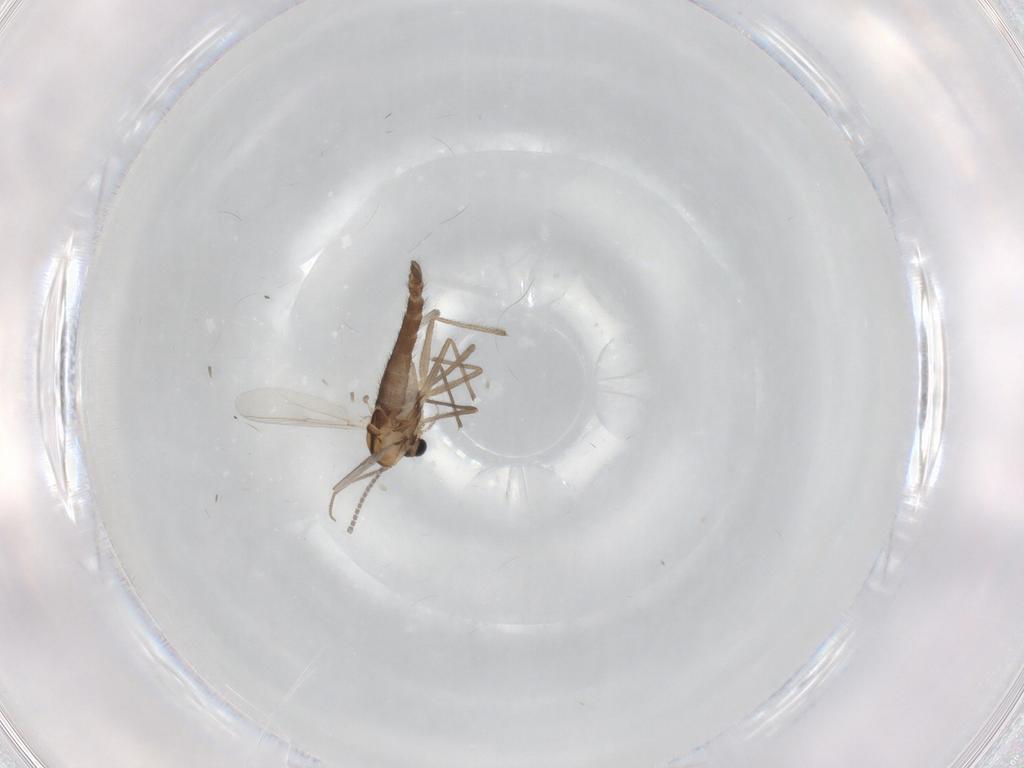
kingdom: Animalia
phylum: Arthropoda
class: Insecta
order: Diptera
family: Chironomidae
